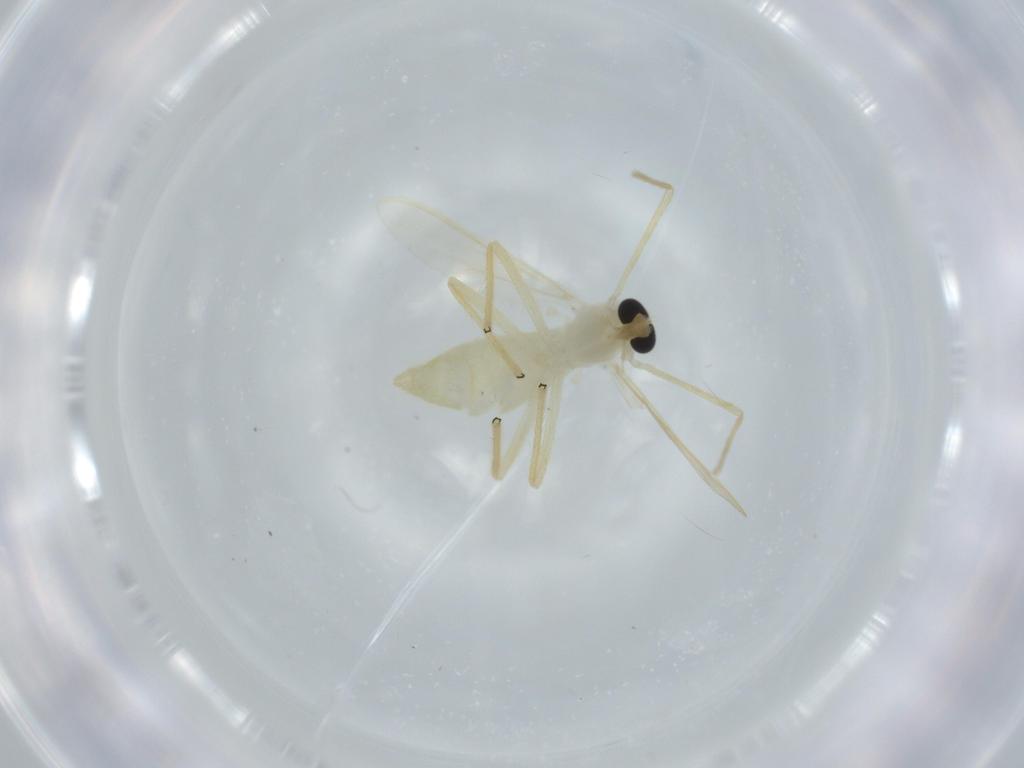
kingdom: Animalia
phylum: Arthropoda
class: Insecta
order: Diptera
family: Chironomidae
